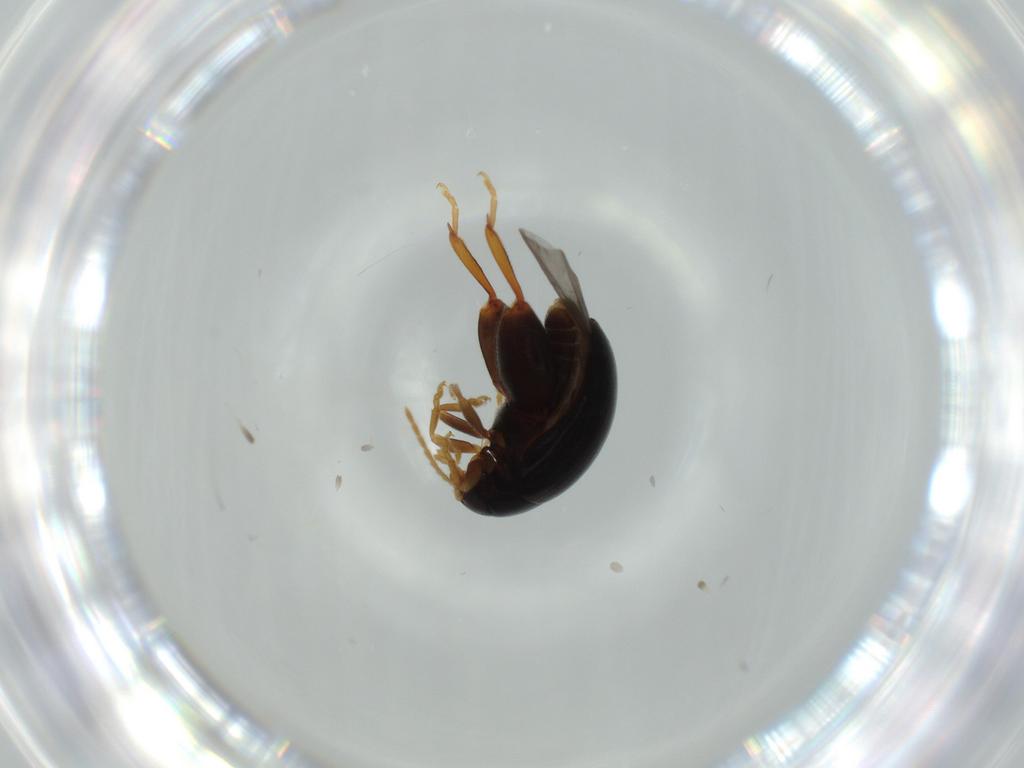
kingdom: Animalia
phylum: Arthropoda
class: Insecta
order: Coleoptera
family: Chrysomelidae
